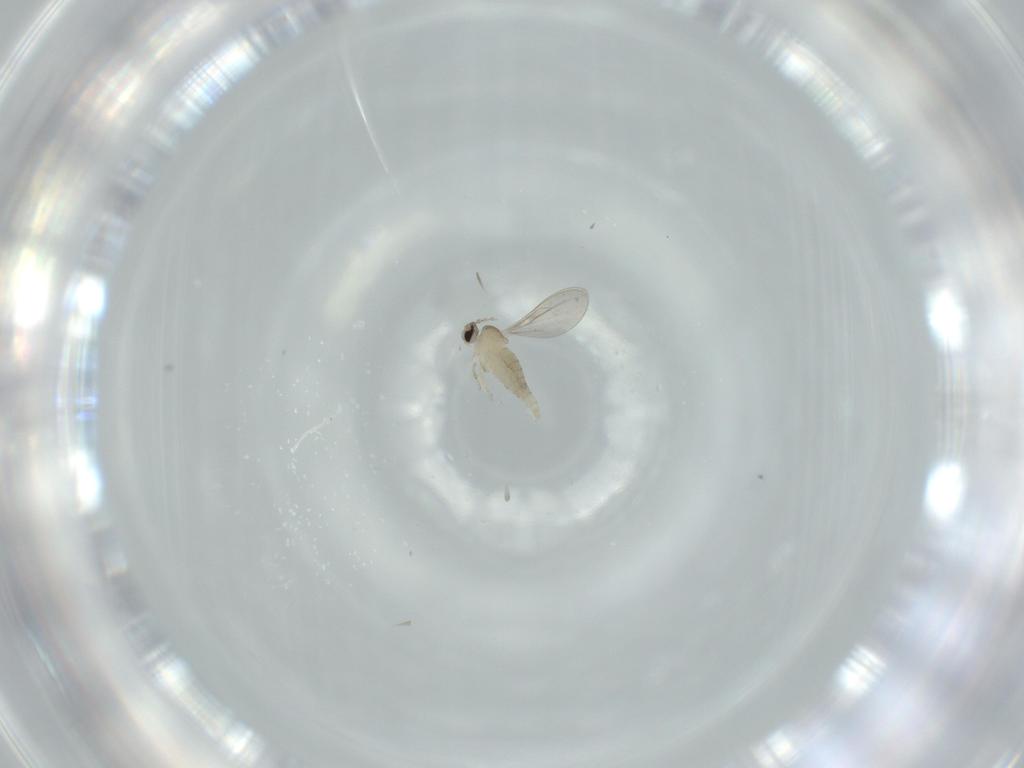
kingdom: Animalia
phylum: Arthropoda
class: Insecta
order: Diptera
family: Cecidomyiidae
